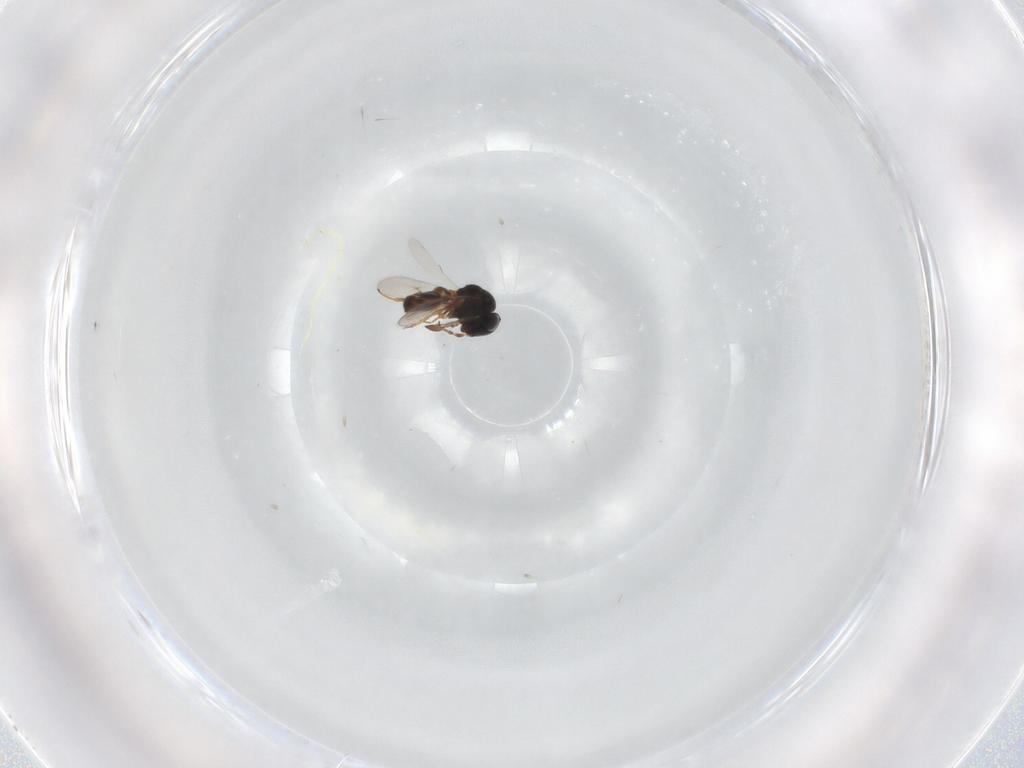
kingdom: Animalia
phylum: Arthropoda
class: Insecta
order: Hymenoptera
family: Scelionidae
